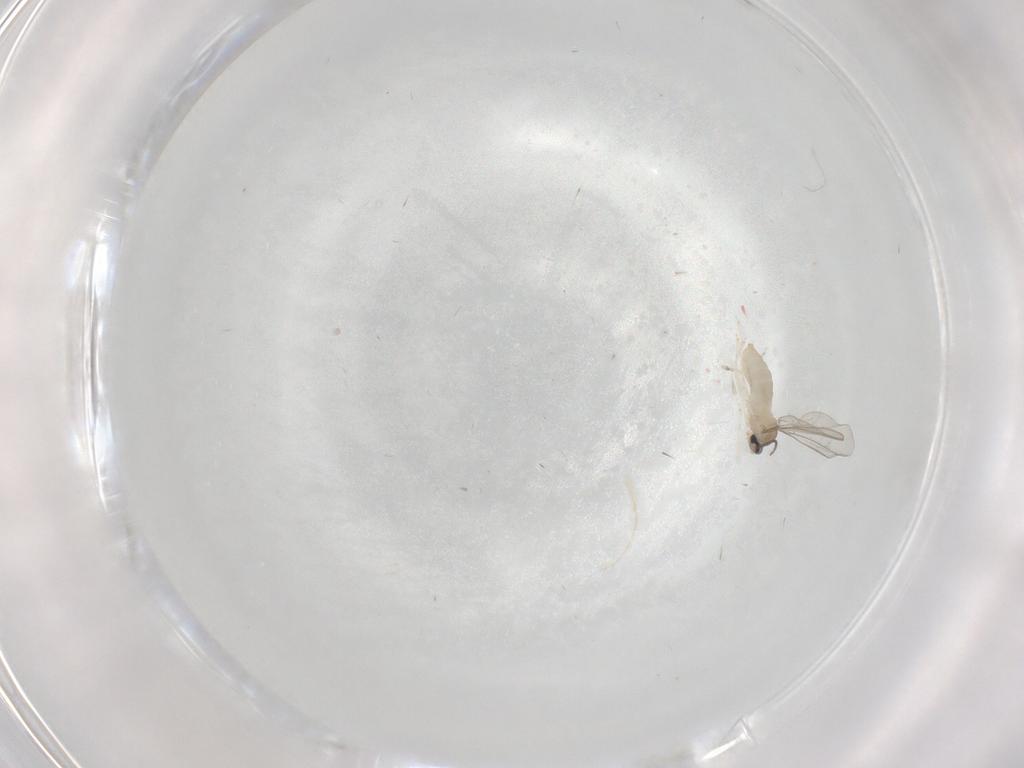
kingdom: Animalia
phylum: Arthropoda
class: Insecta
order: Diptera
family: Cecidomyiidae
